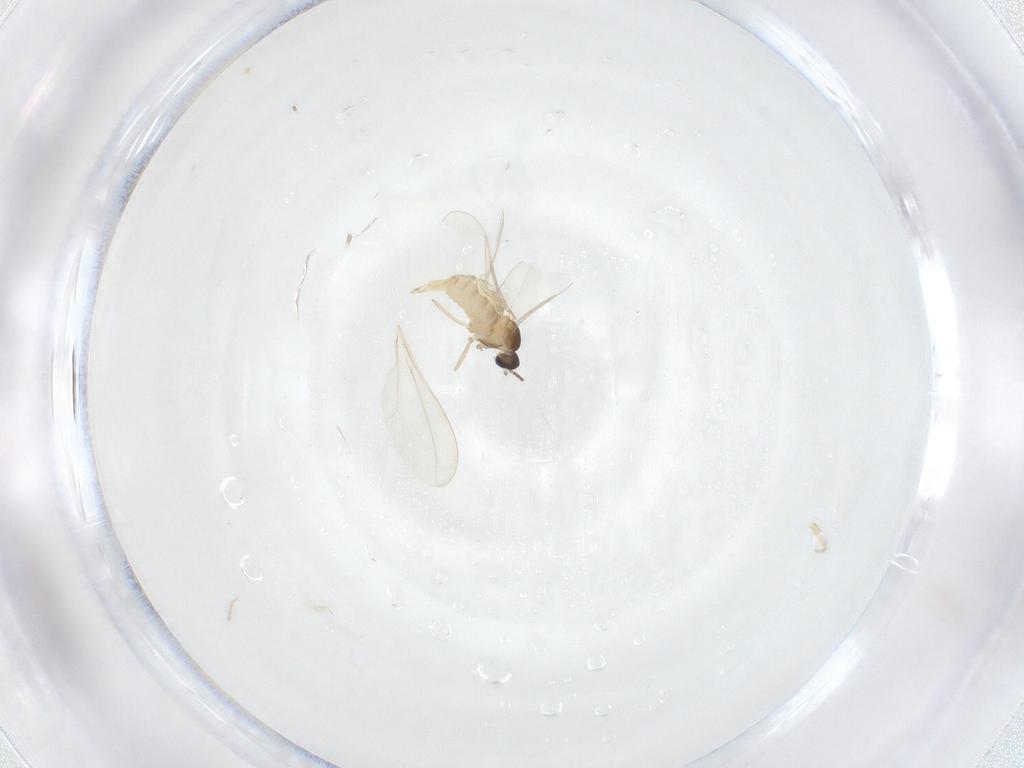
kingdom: Animalia
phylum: Arthropoda
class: Insecta
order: Diptera
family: Cecidomyiidae
